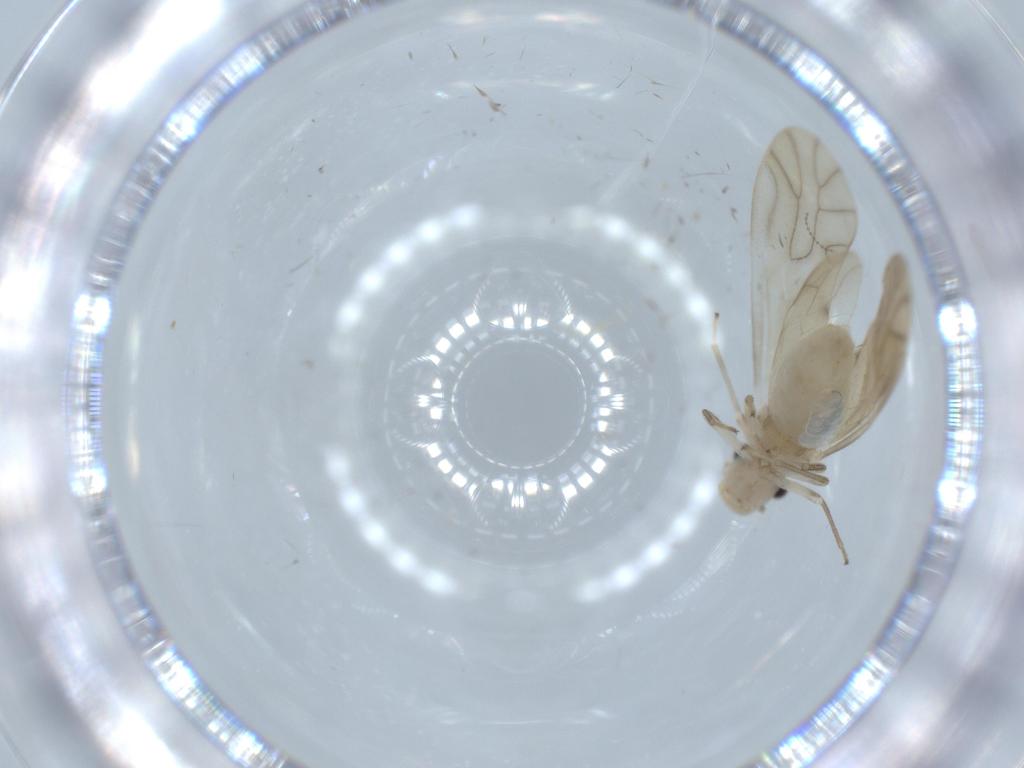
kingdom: Animalia
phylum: Arthropoda
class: Insecta
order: Psocodea
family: Caeciliusidae
